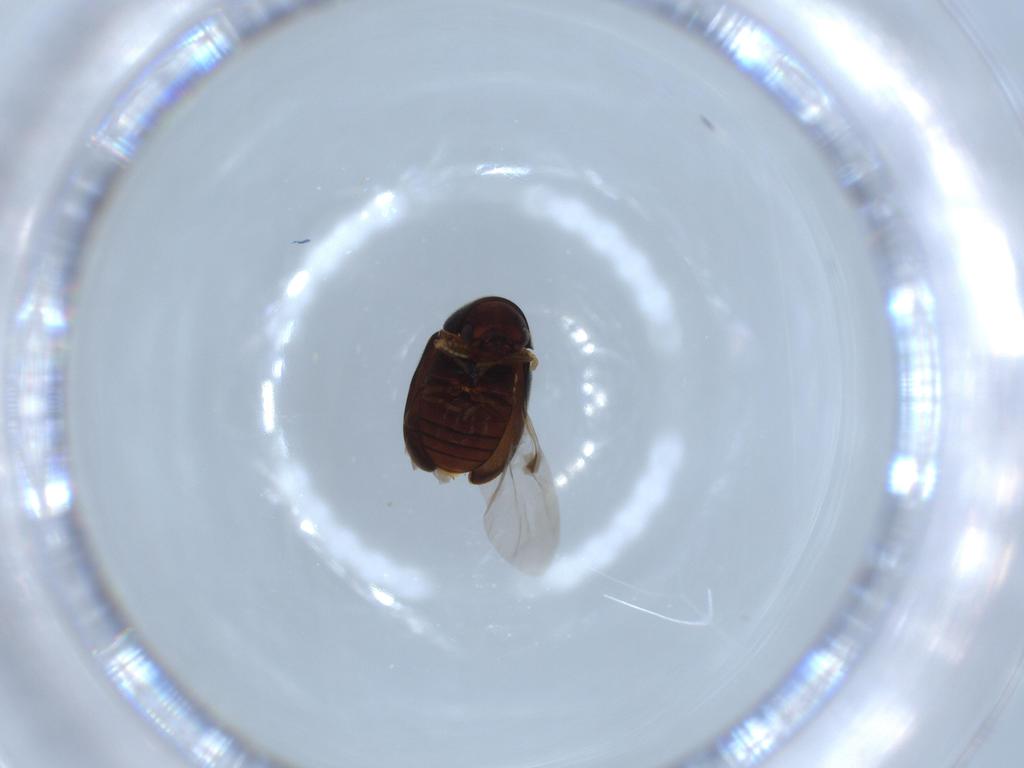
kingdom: Animalia
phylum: Arthropoda
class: Insecta
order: Coleoptera
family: Ptinidae
